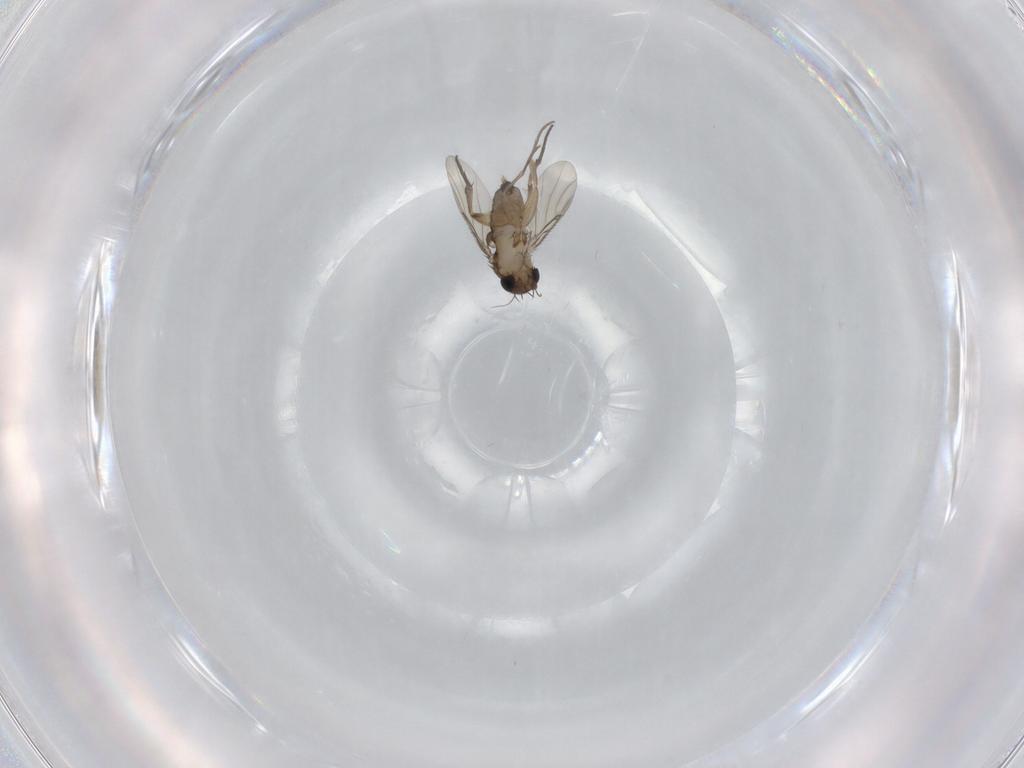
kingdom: Animalia
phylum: Arthropoda
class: Insecta
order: Diptera
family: Phoridae
